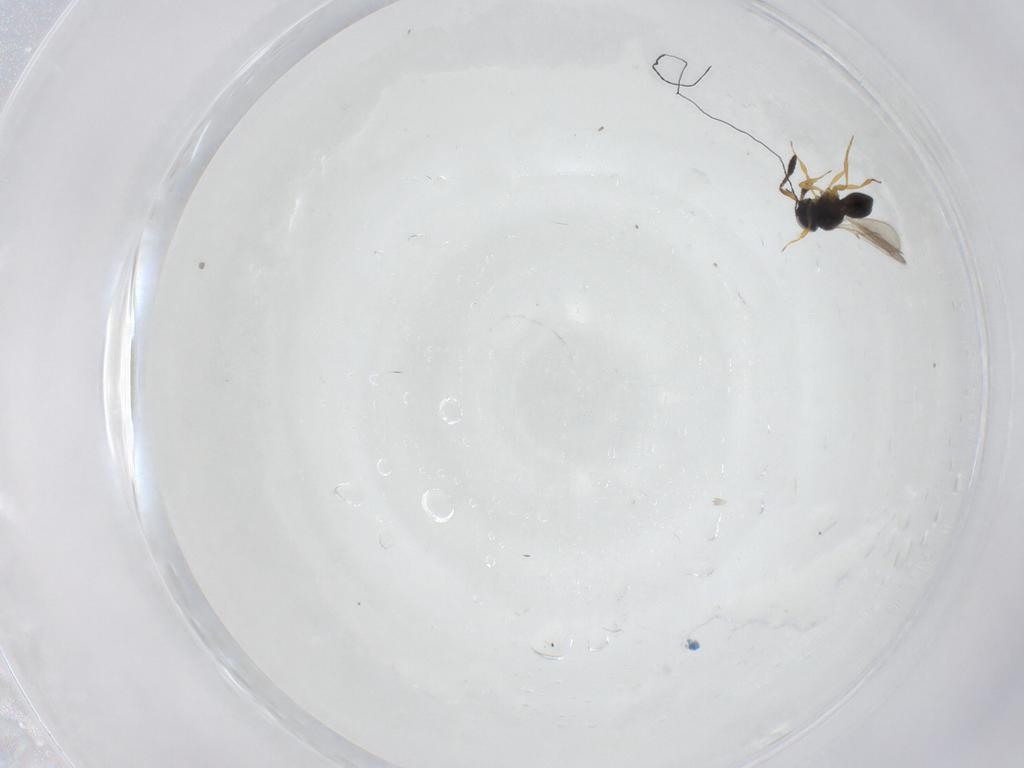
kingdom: Animalia
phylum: Arthropoda
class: Insecta
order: Hymenoptera
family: Scelionidae
